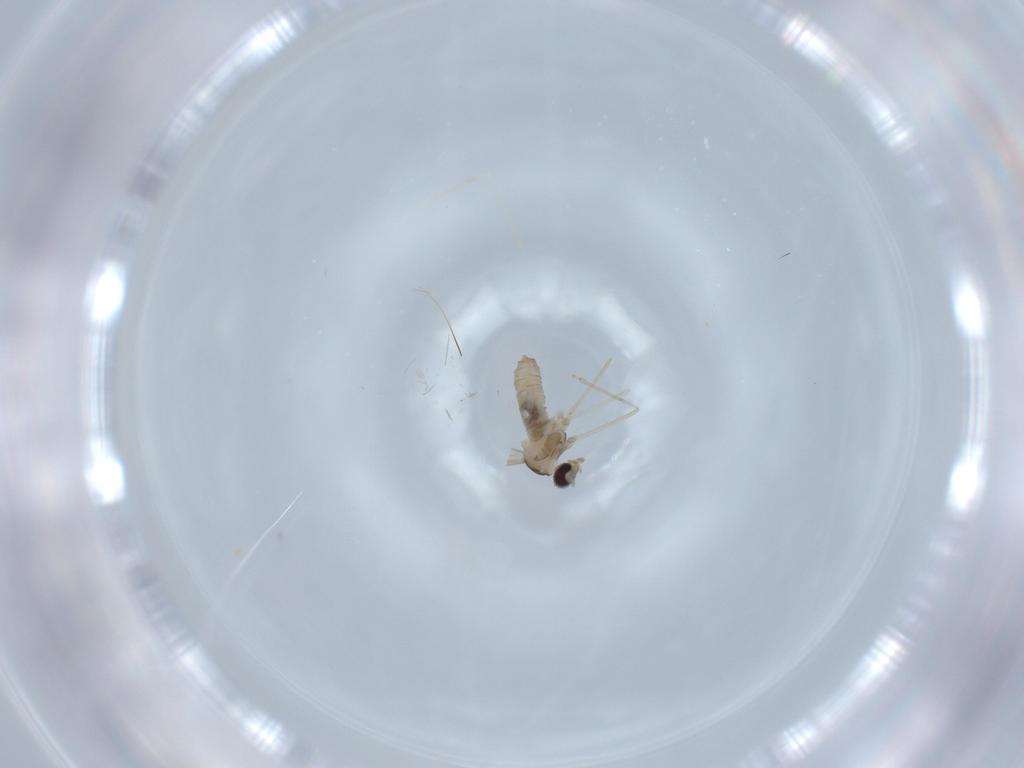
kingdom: Animalia
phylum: Arthropoda
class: Insecta
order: Diptera
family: Cecidomyiidae
